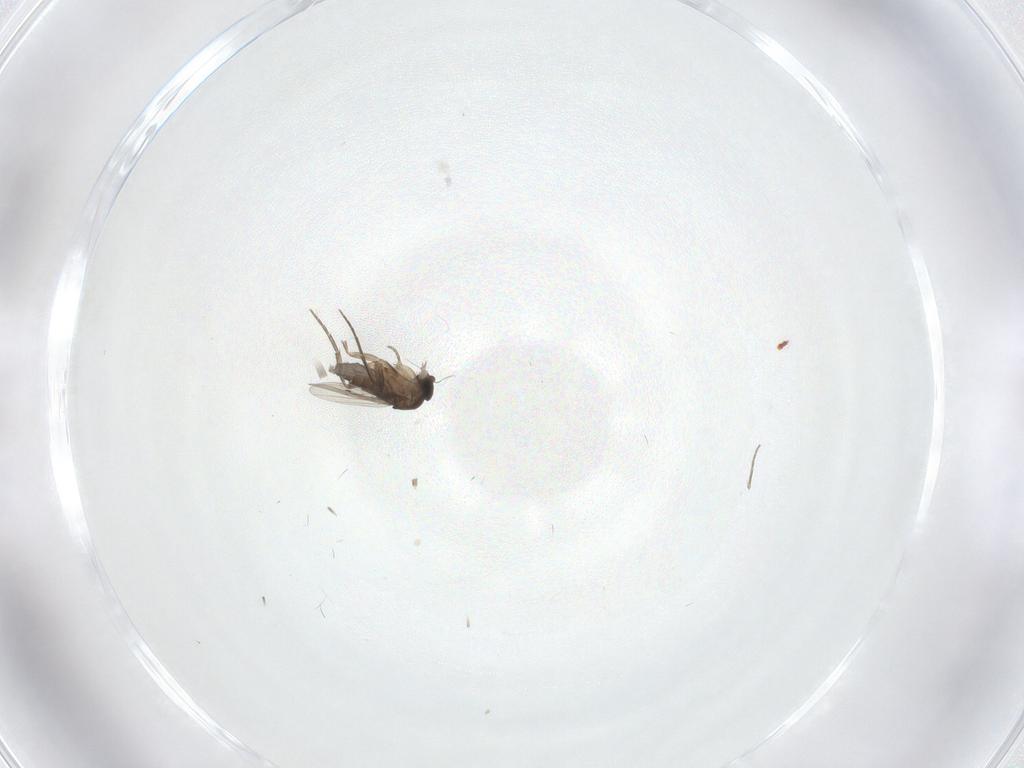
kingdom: Animalia
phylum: Arthropoda
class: Insecta
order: Diptera
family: Phoridae
